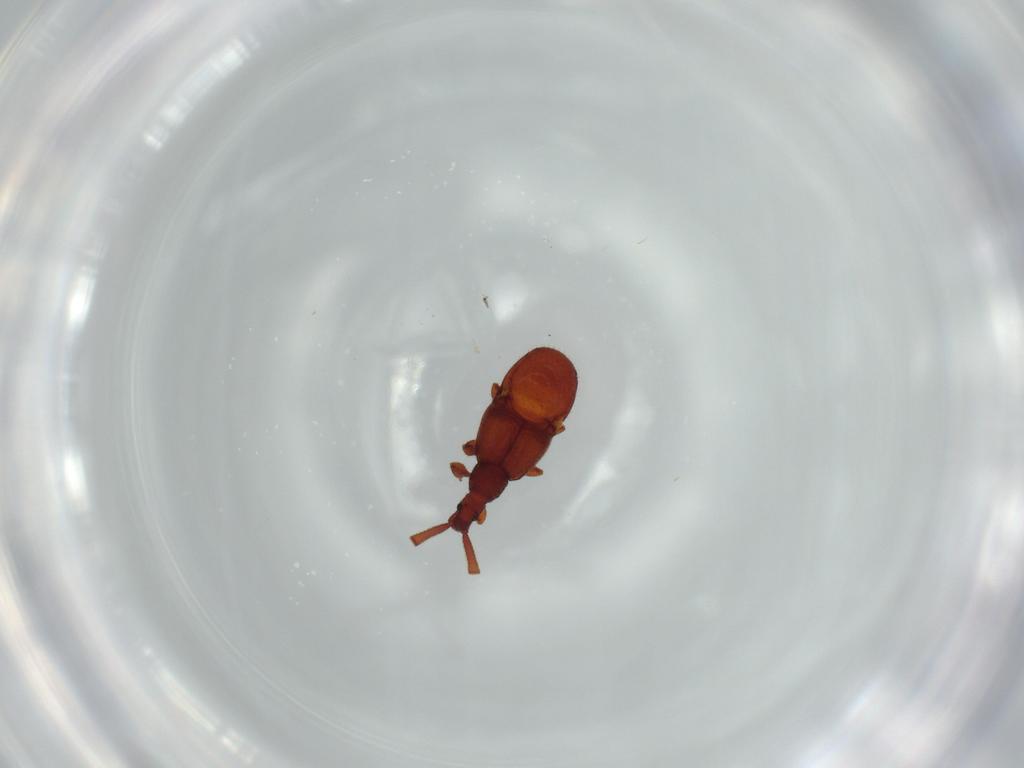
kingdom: Animalia
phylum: Arthropoda
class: Insecta
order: Coleoptera
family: Staphylinidae
